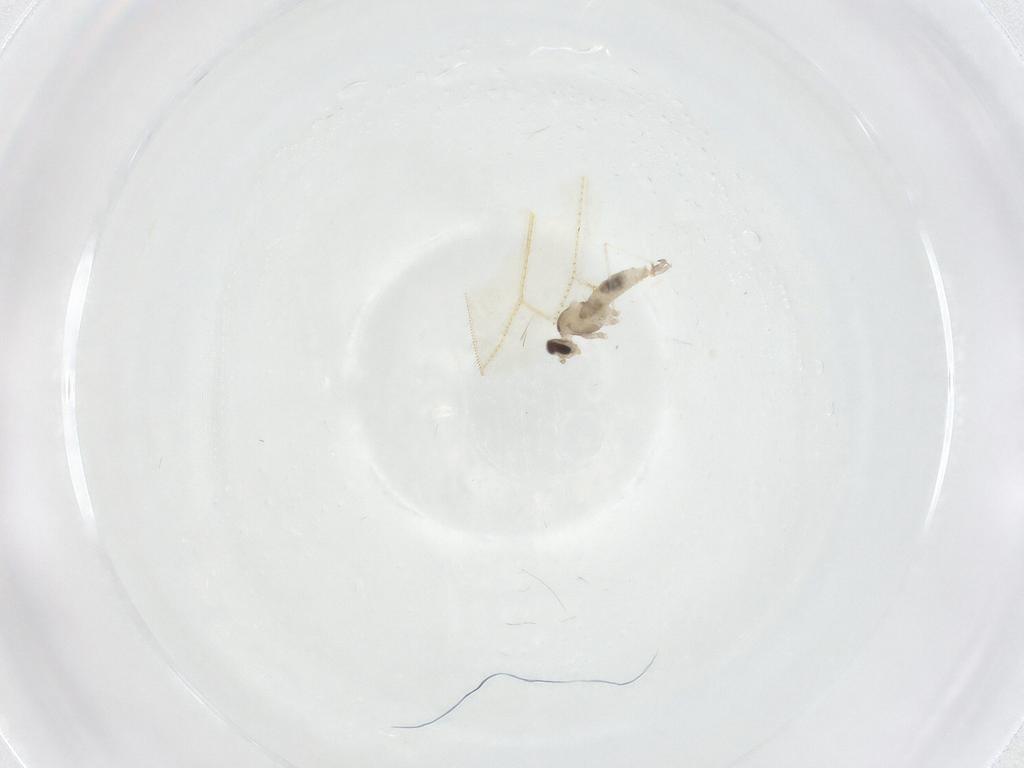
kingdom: Animalia
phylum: Arthropoda
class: Insecta
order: Diptera
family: Cecidomyiidae
